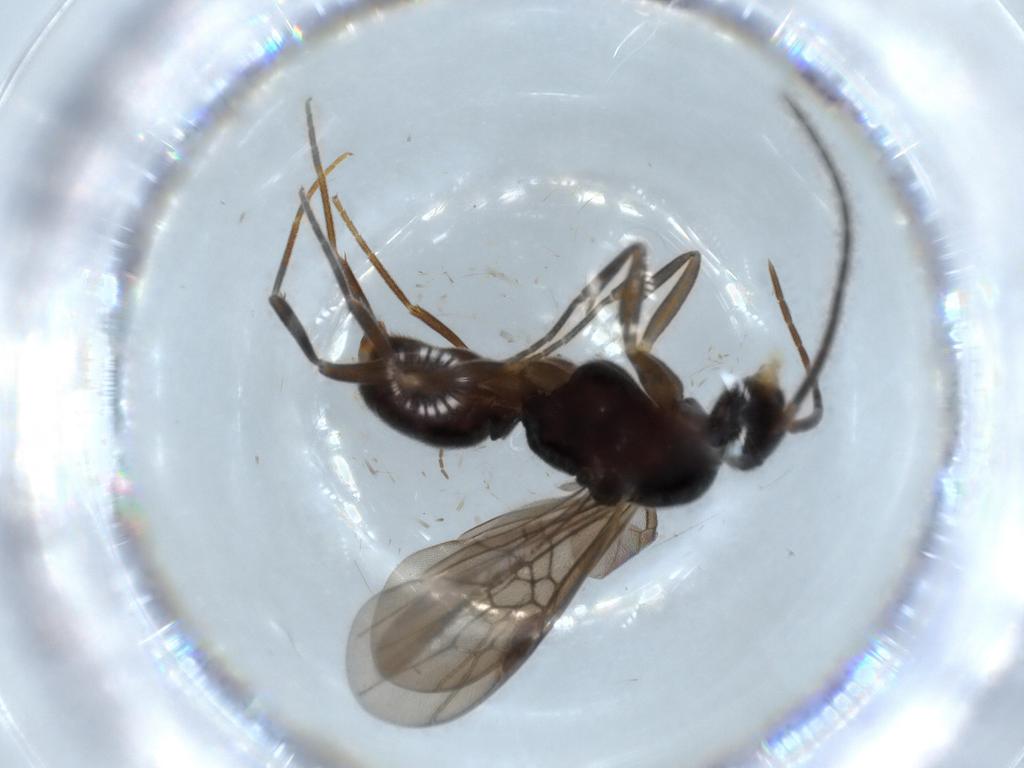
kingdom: Animalia
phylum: Arthropoda
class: Insecta
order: Hymenoptera
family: Formicidae
